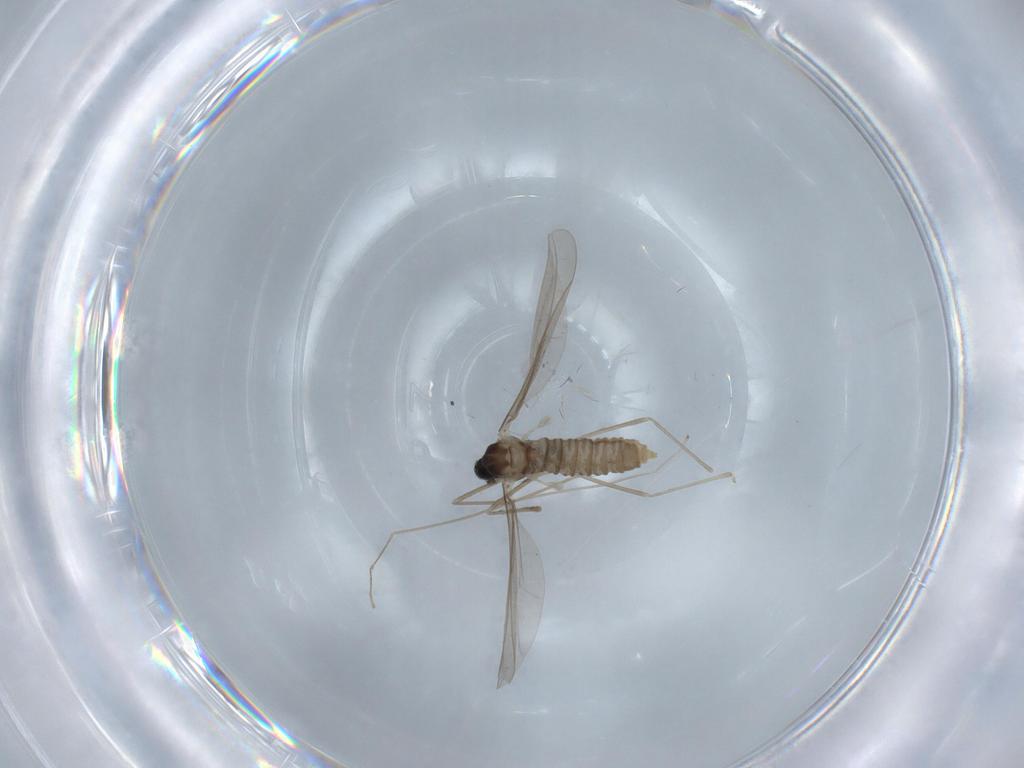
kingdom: Animalia
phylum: Arthropoda
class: Insecta
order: Diptera
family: Cecidomyiidae
